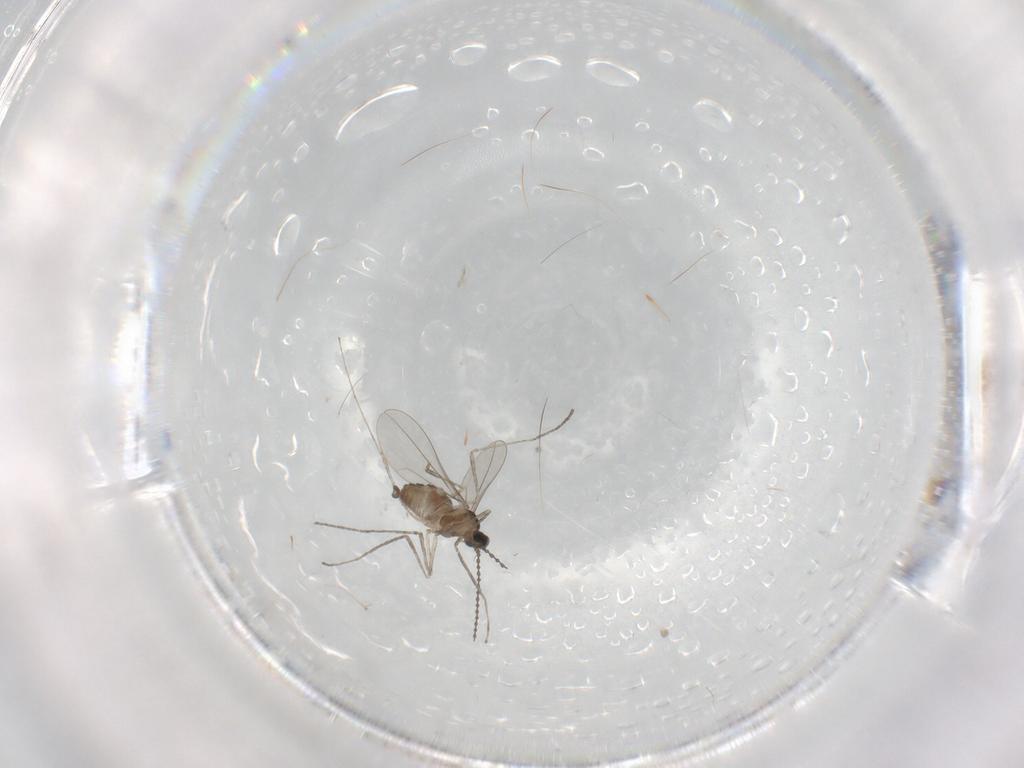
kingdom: Animalia
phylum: Arthropoda
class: Insecta
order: Diptera
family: Cecidomyiidae
